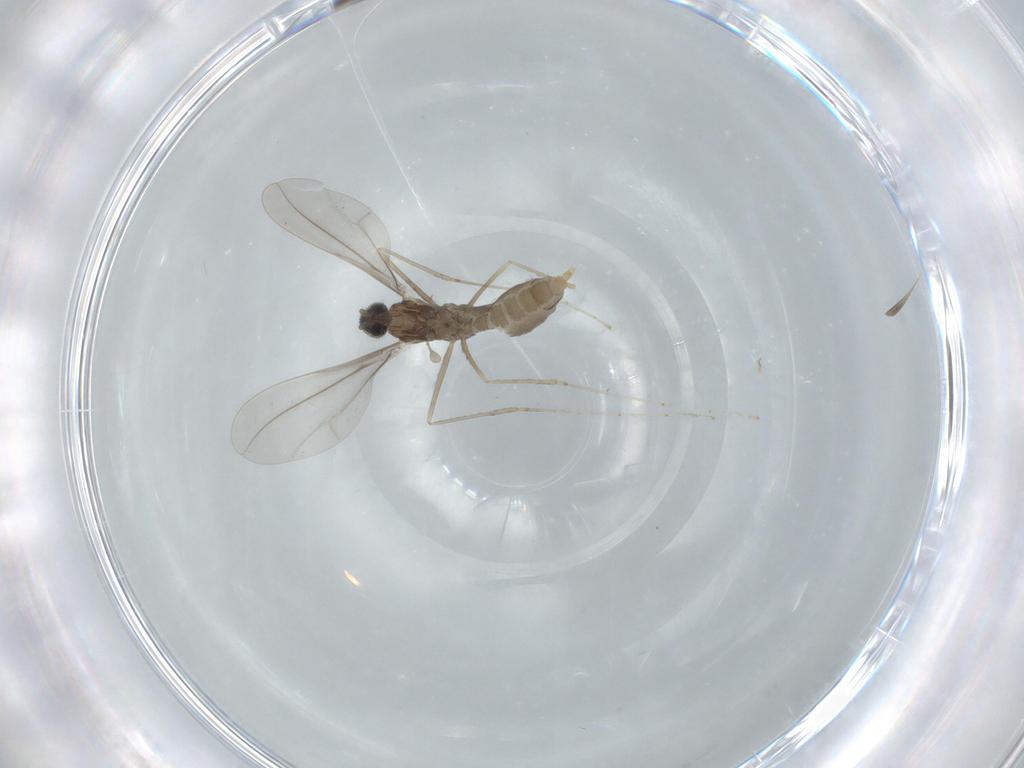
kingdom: Animalia
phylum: Arthropoda
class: Insecta
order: Diptera
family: Cecidomyiidae
